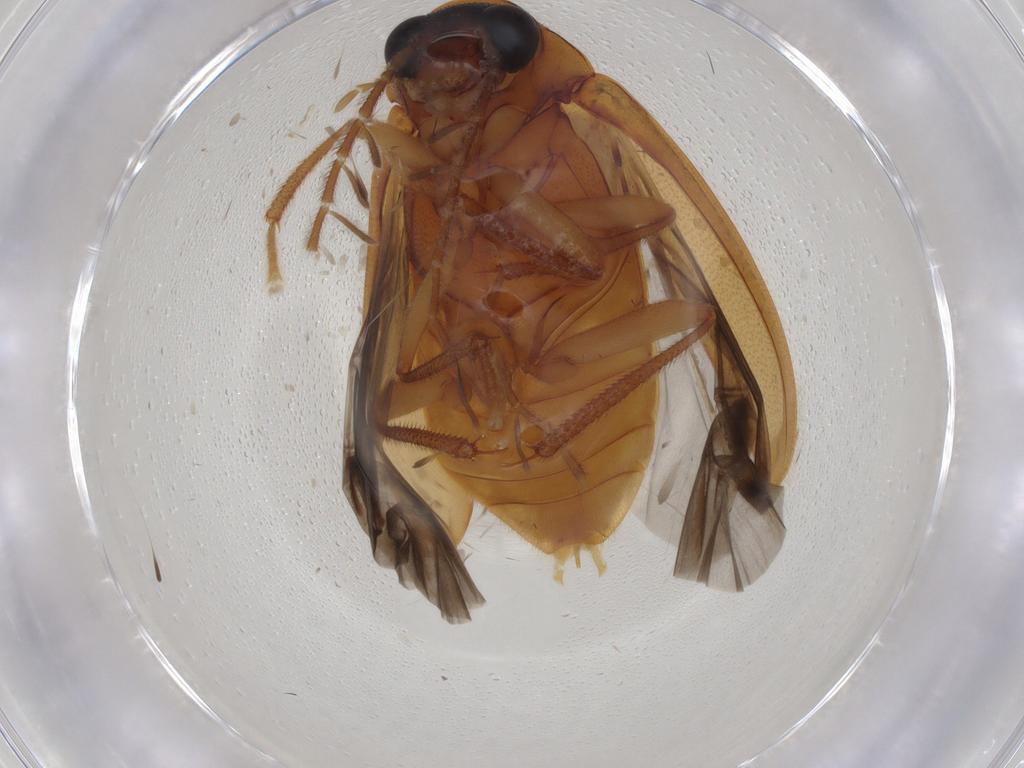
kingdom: Animalia
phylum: Arthropoda
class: Insecta
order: Coleoptera
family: Ptilodactylidae
